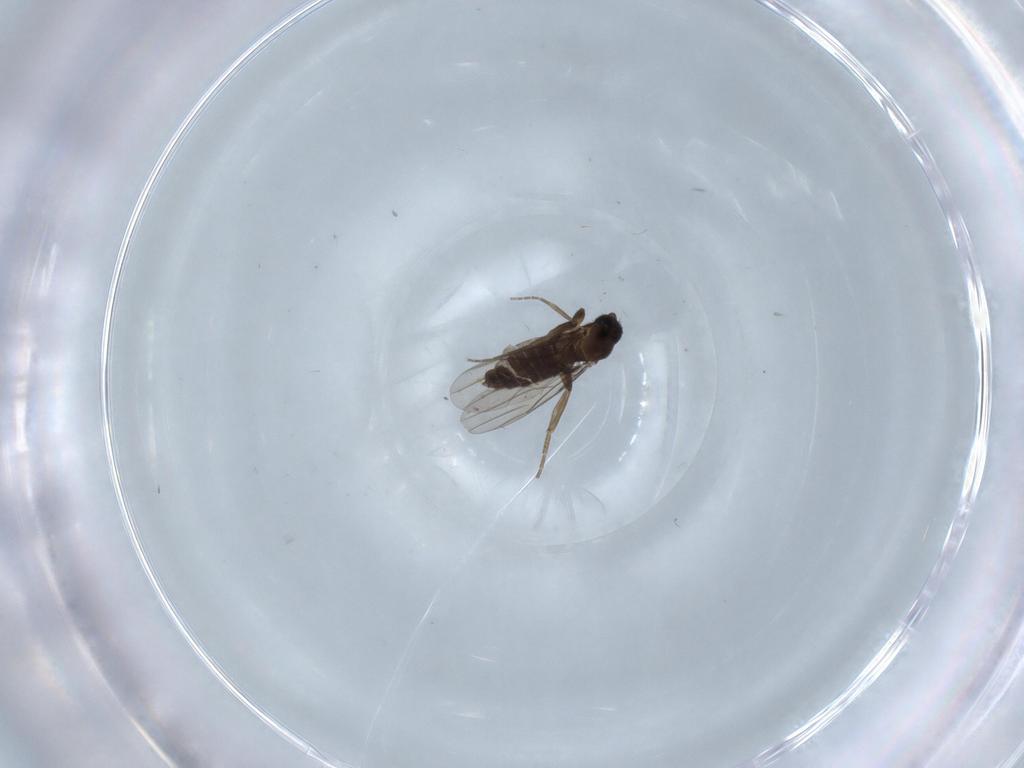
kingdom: Animalia
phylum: Arthropoda
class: Insecta
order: Diptera
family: Phoridae
